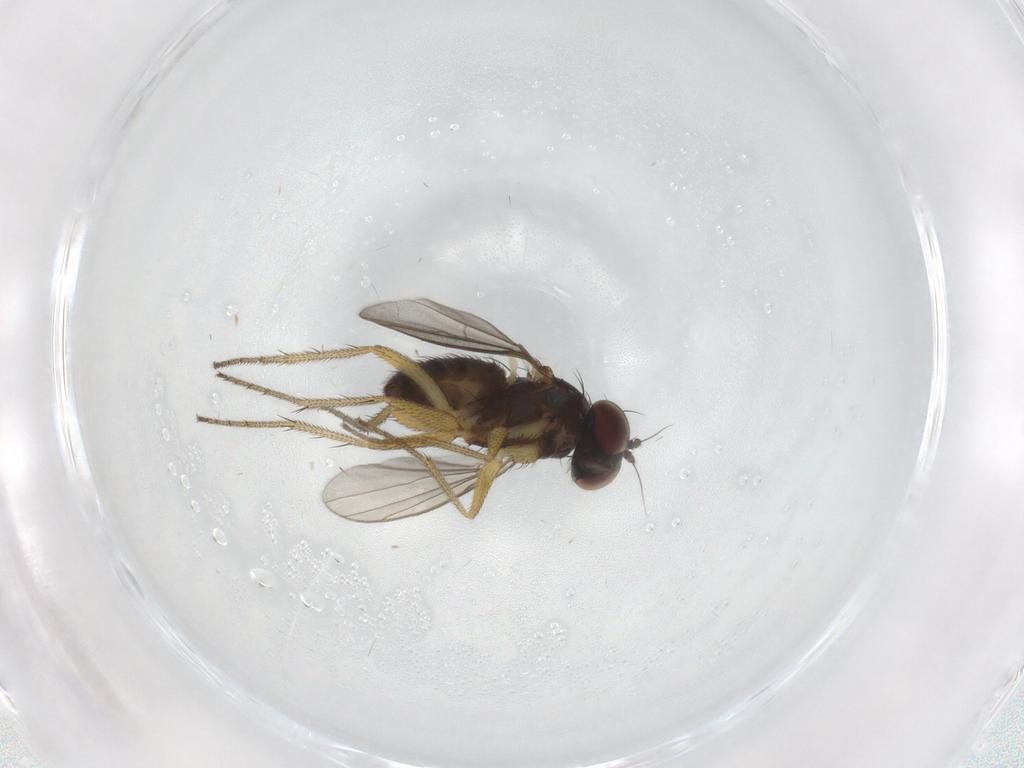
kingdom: Animalia
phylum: Arthropoda
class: Insecta
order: Diptera
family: Dolichopodidae
